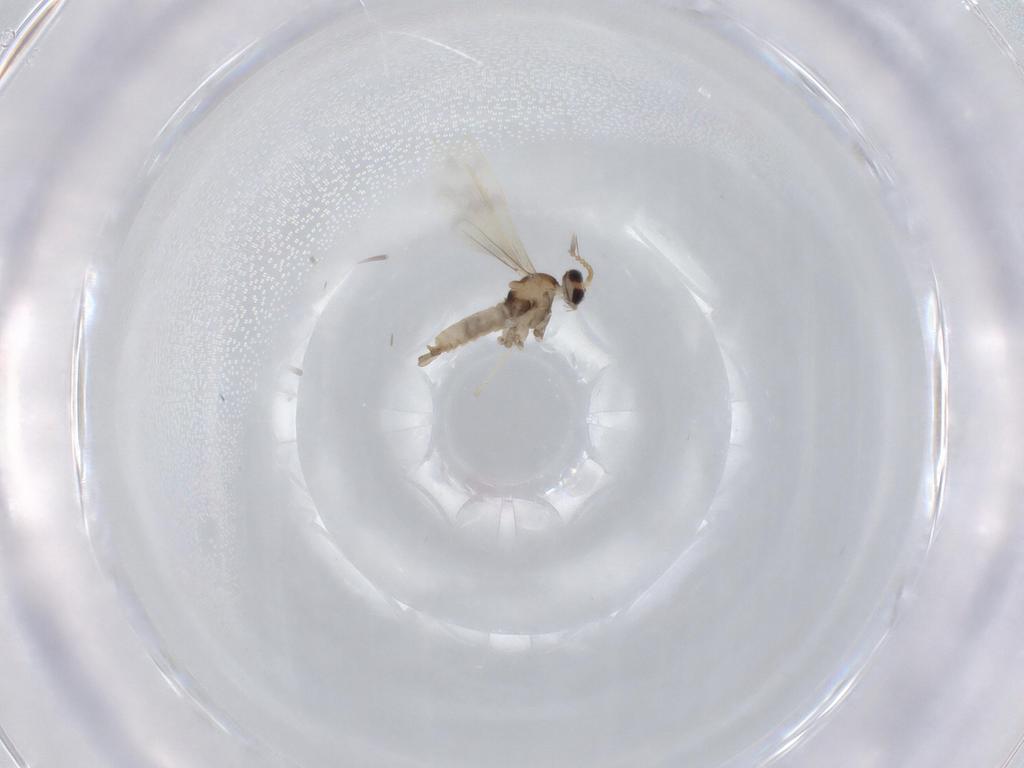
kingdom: Animalia
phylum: Arthropoda
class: Insecta
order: Diptera
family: Cecidomyiidae
